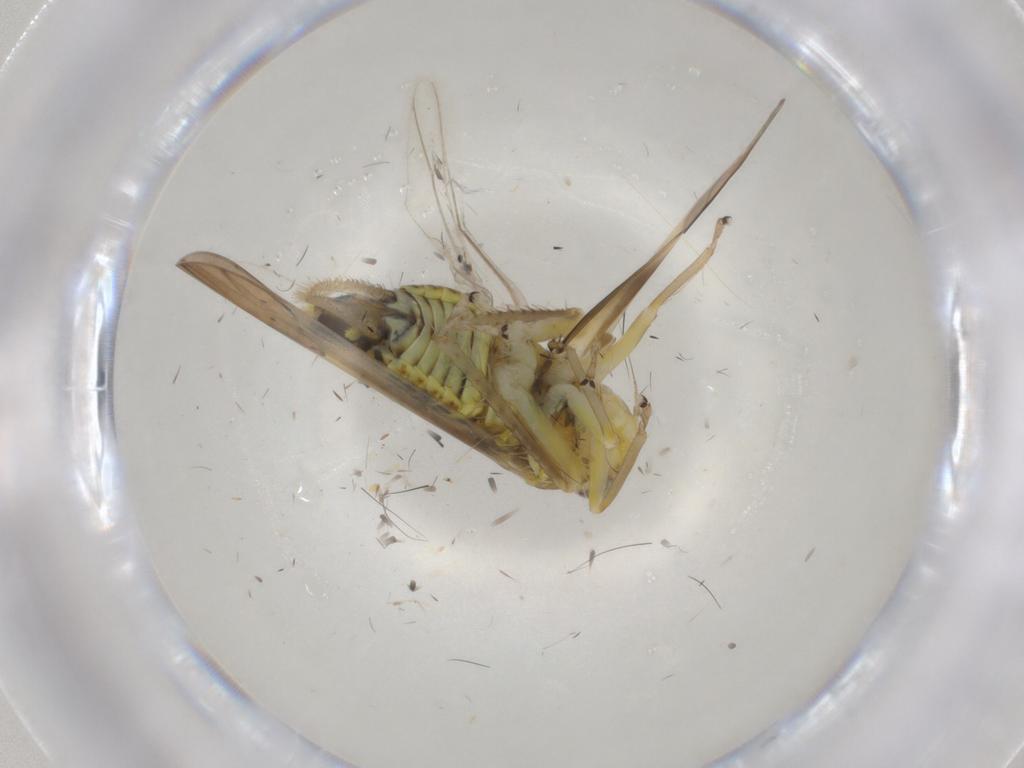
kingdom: Animalia
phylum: Arthropoda
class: Insecta
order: Hemiptera
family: Cicadellidae
